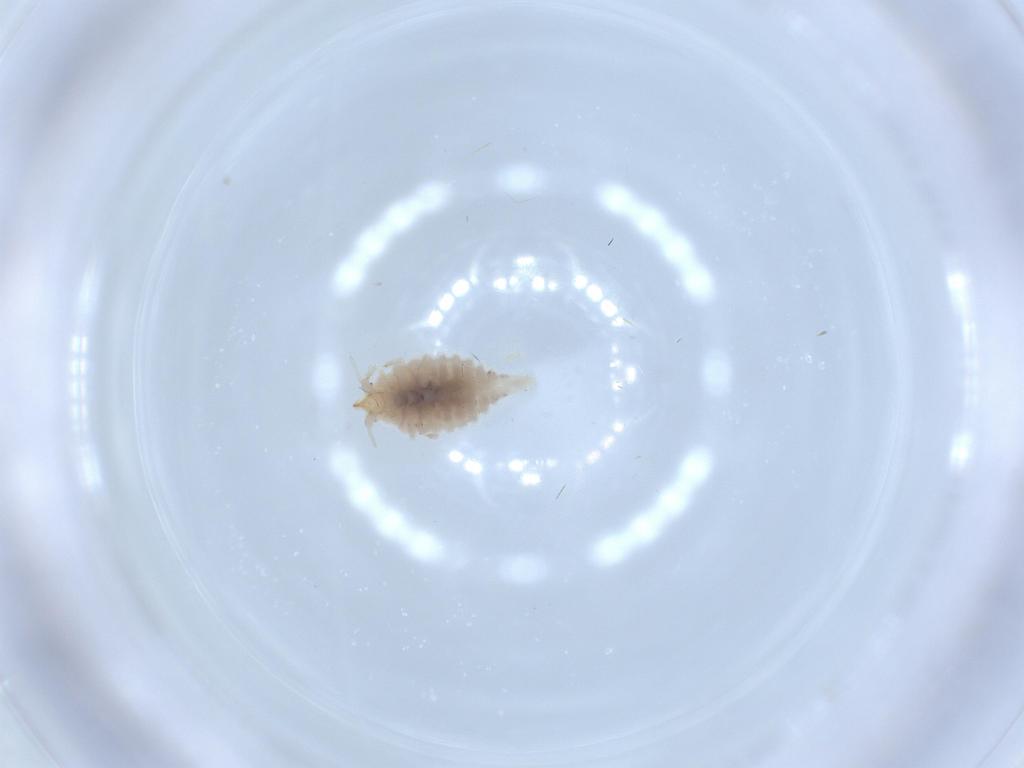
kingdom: Animalia
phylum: Arthropoda
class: Insecta
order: Neuroptera
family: Coniopterygidae
